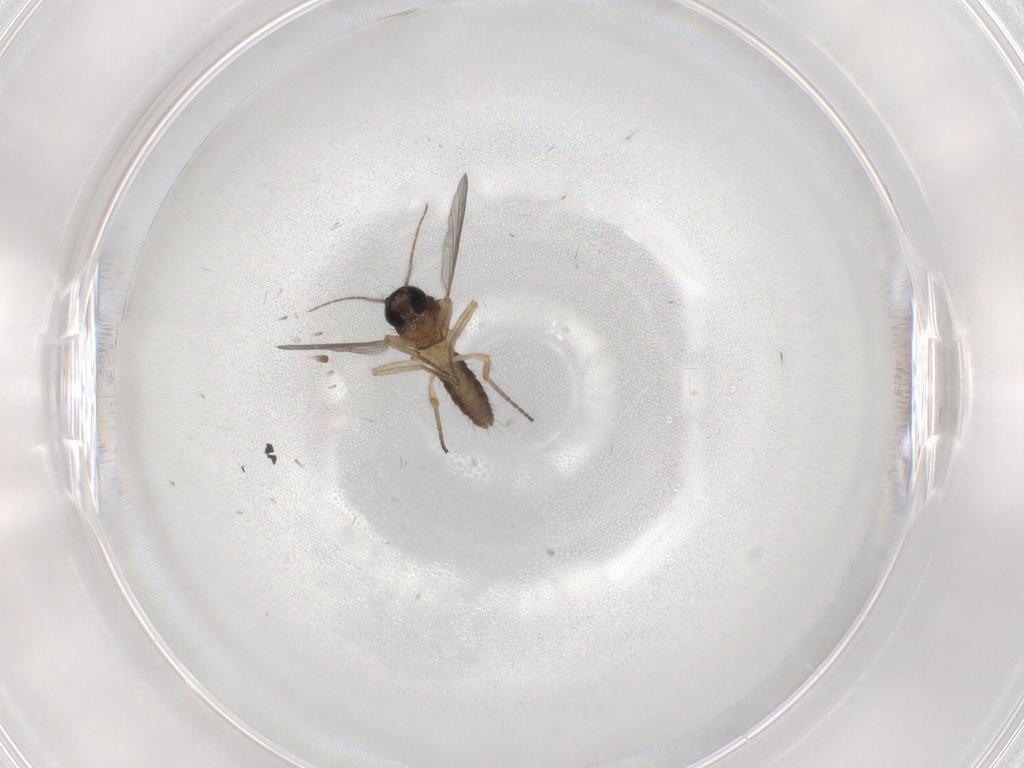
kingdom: Animalia
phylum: Arthropoda
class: Insecta
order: Diptera
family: Ceratopogonidae
